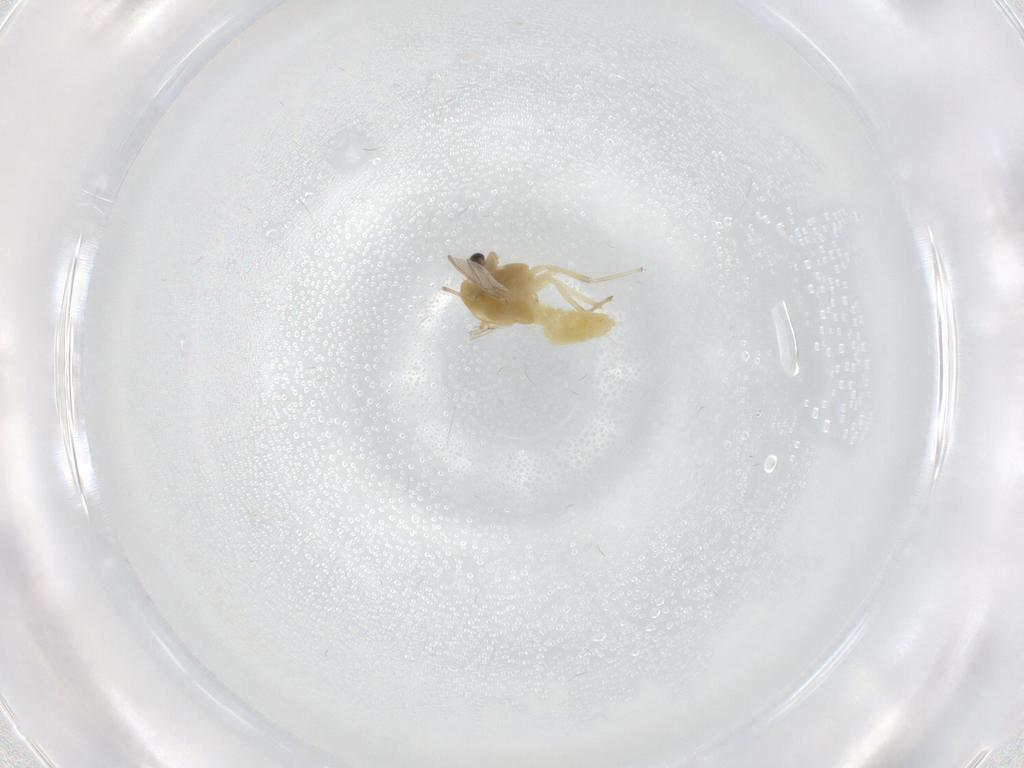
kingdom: Animalia
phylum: Arthropoda
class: Insecta
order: Diptera
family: Chironomidae
